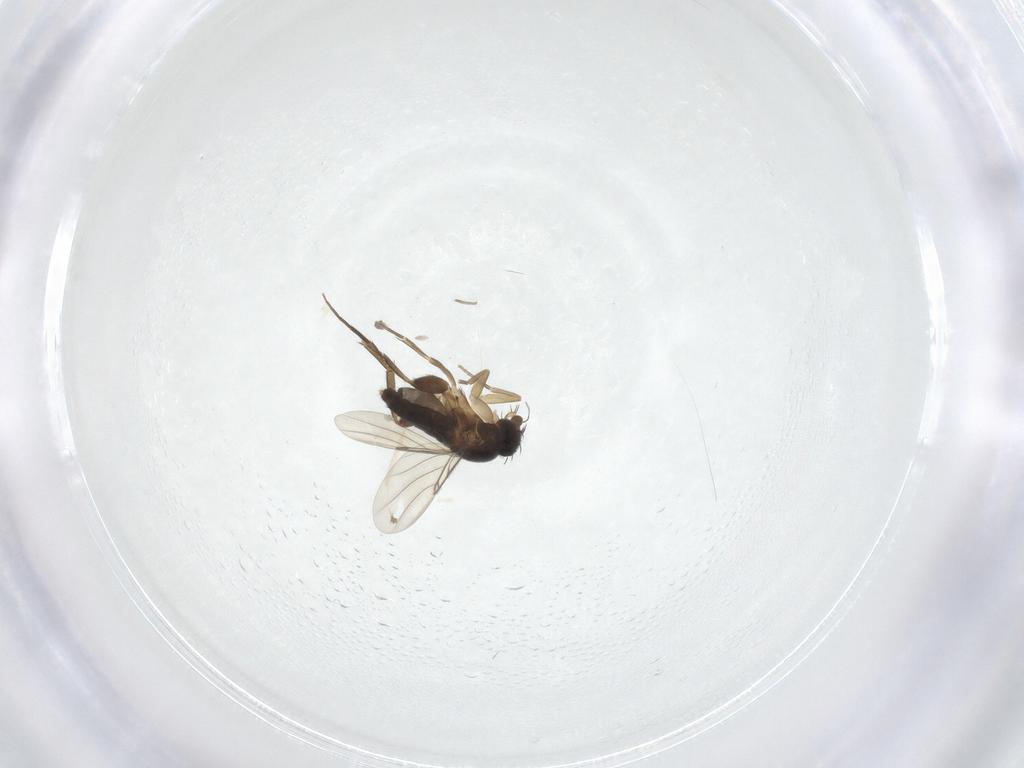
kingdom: Animalia
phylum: Arthropoda
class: Insecta
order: Diptera
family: Phoridae
